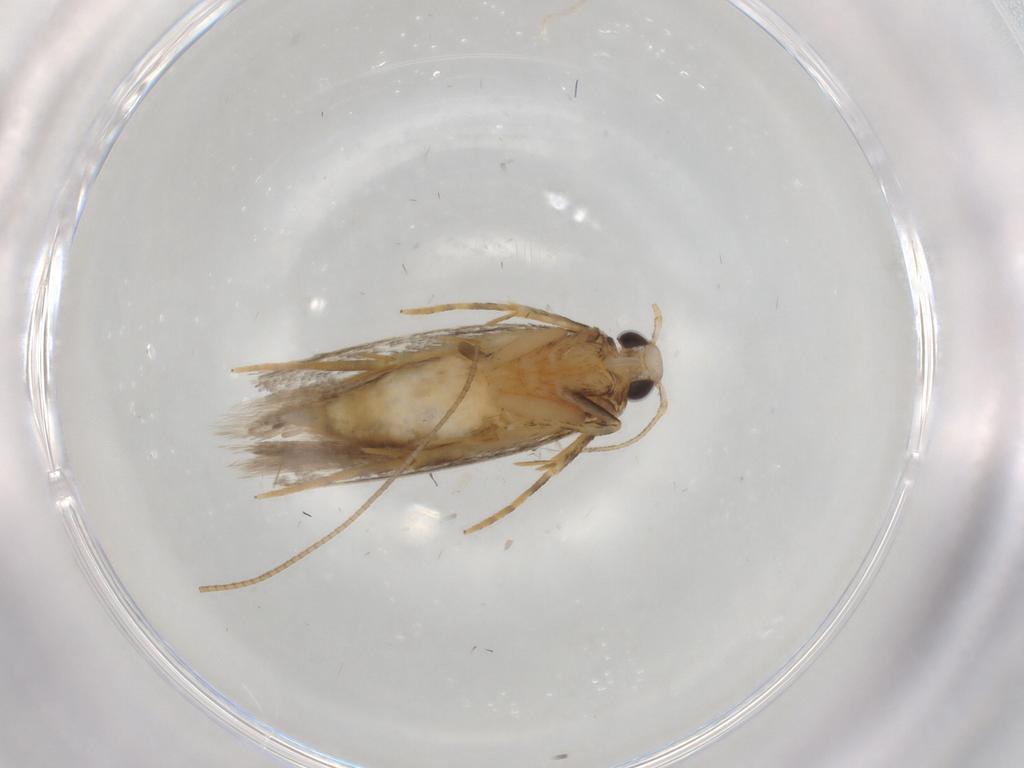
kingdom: Animalia
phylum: Arthropoda
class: Insecta
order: Lepidoptera
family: Autostichidae
